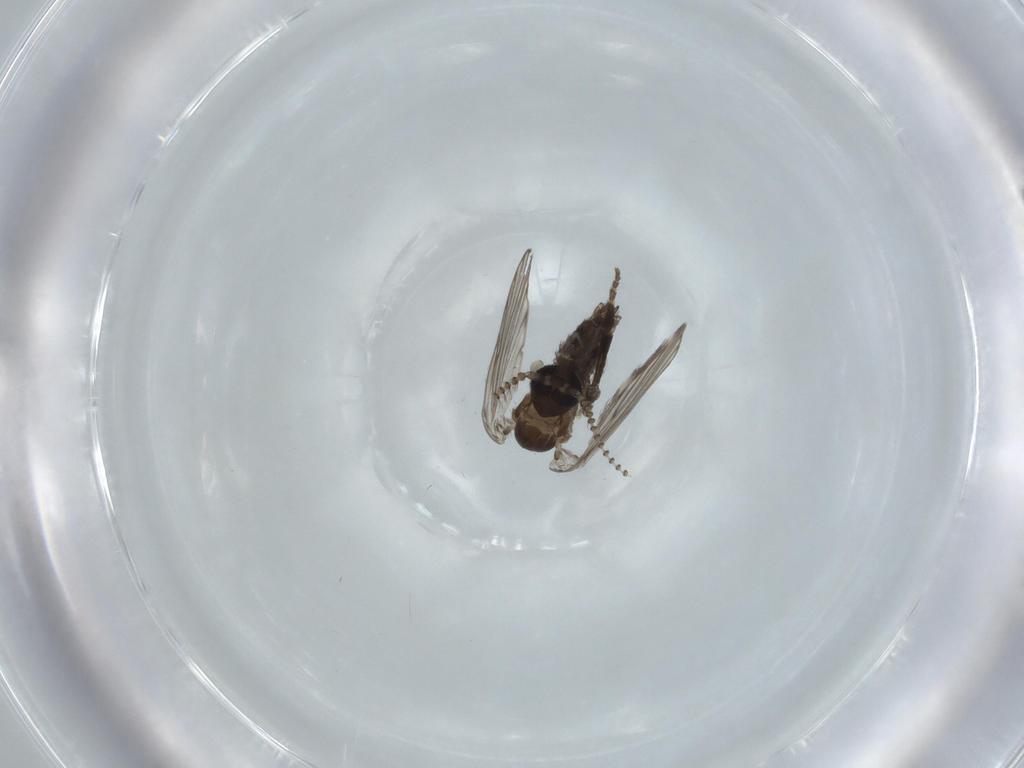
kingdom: Animalia
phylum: Arthropoda
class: Insecta
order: Diptera
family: Psychodidae
